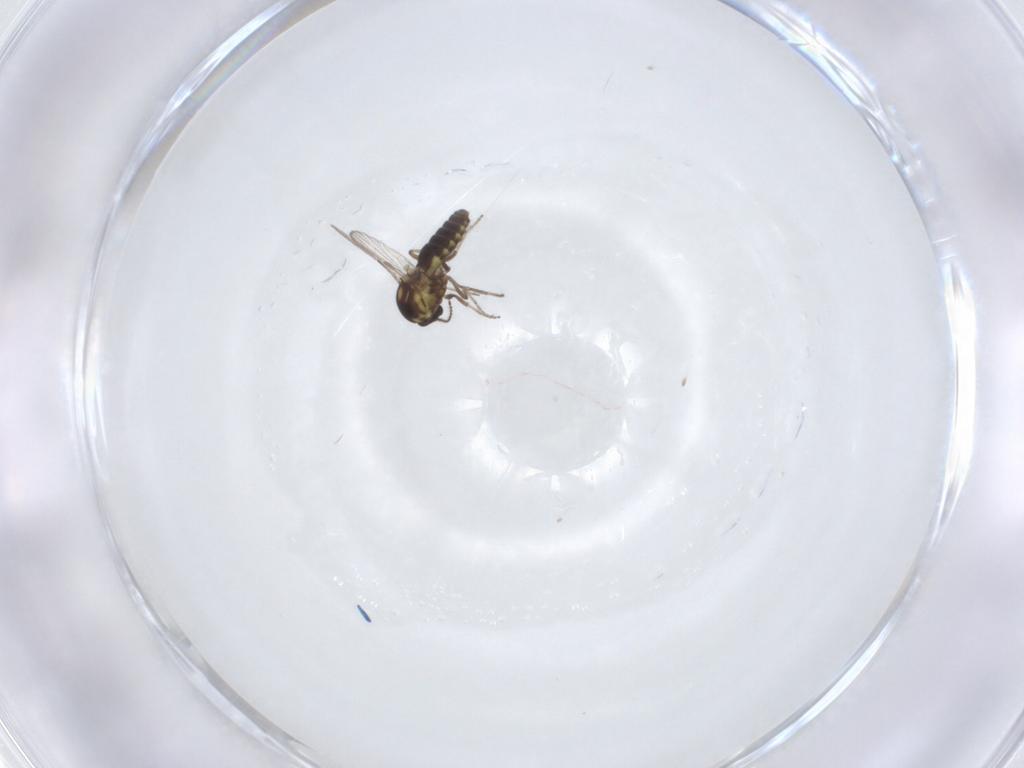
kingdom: Animalia
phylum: Arthropoda
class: Insecta
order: Diptera
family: Ceratopogonidae
